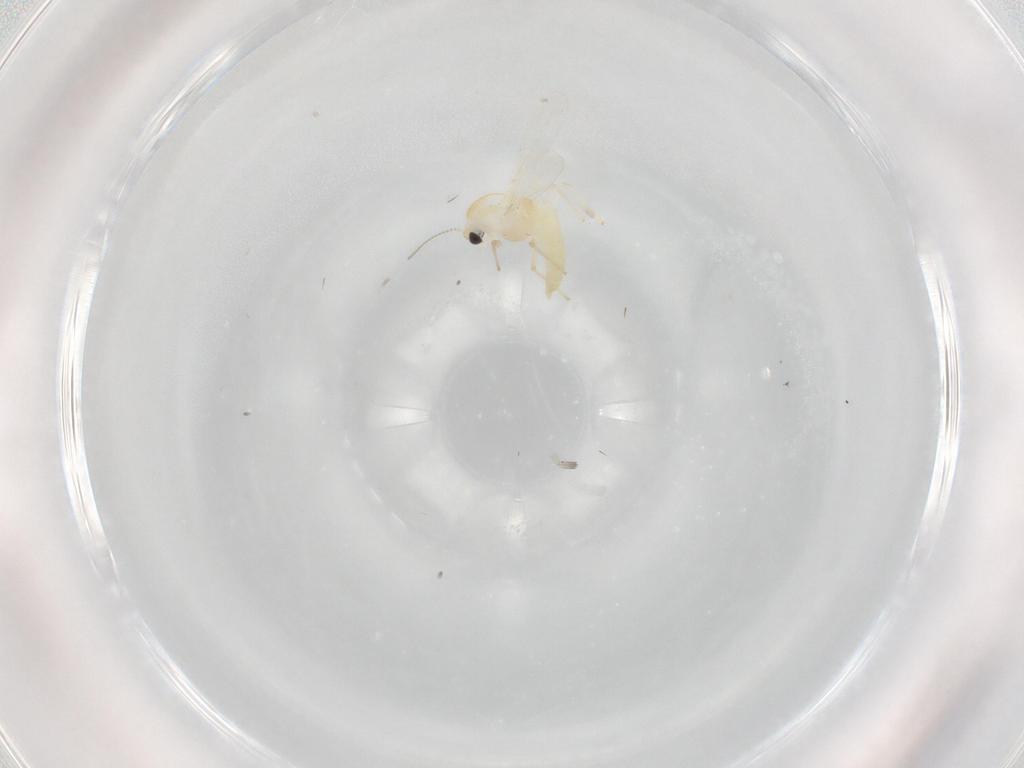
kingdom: Animalia
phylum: Arthropoda
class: Insecta
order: Diptera
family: Chironomidae
